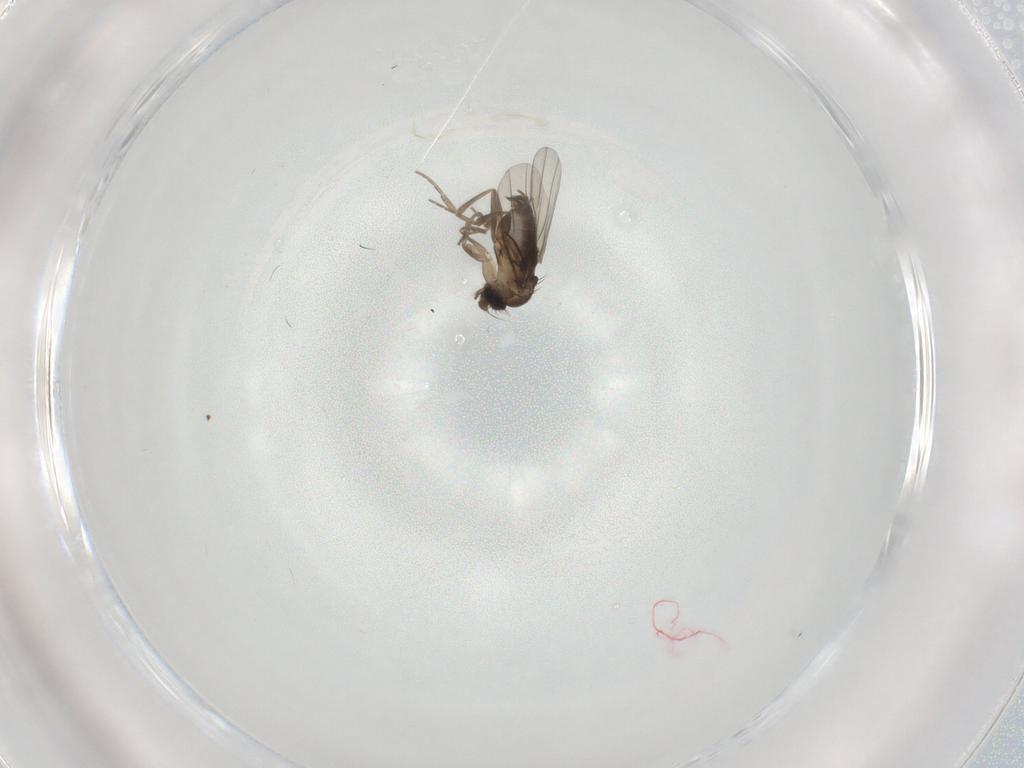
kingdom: Animalia
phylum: Arthropoda
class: Insecta
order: Diptera
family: Phoridae
